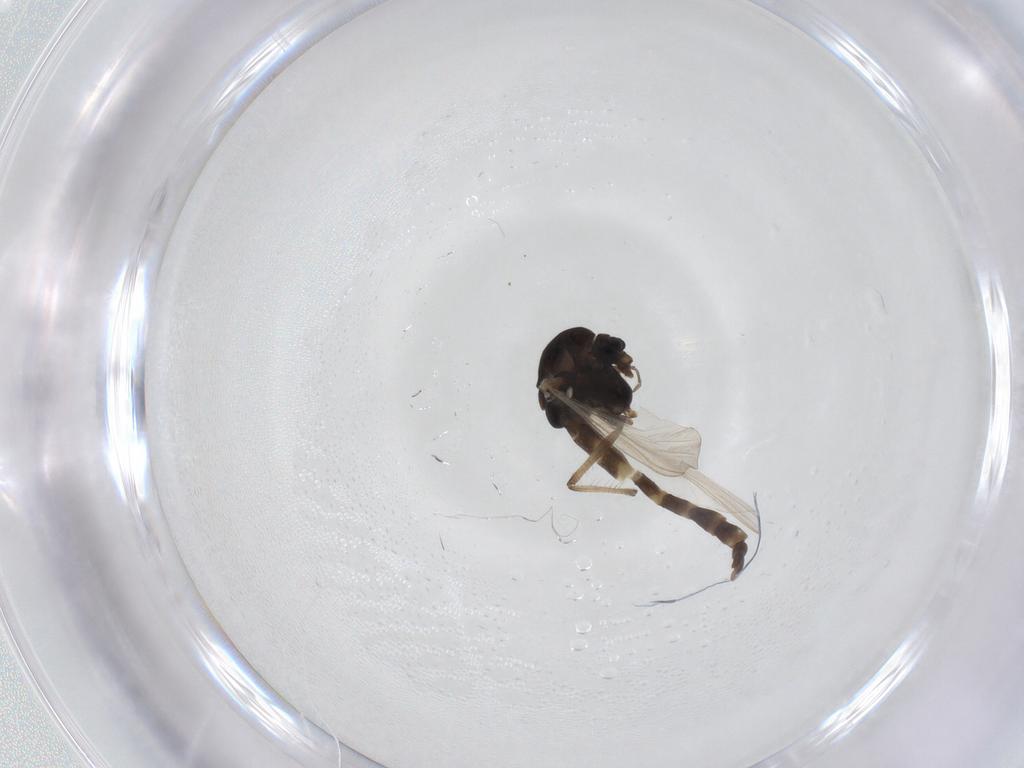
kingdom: Animalia
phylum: Arthropoda
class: Insecta
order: Diptera
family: Chironomidae
